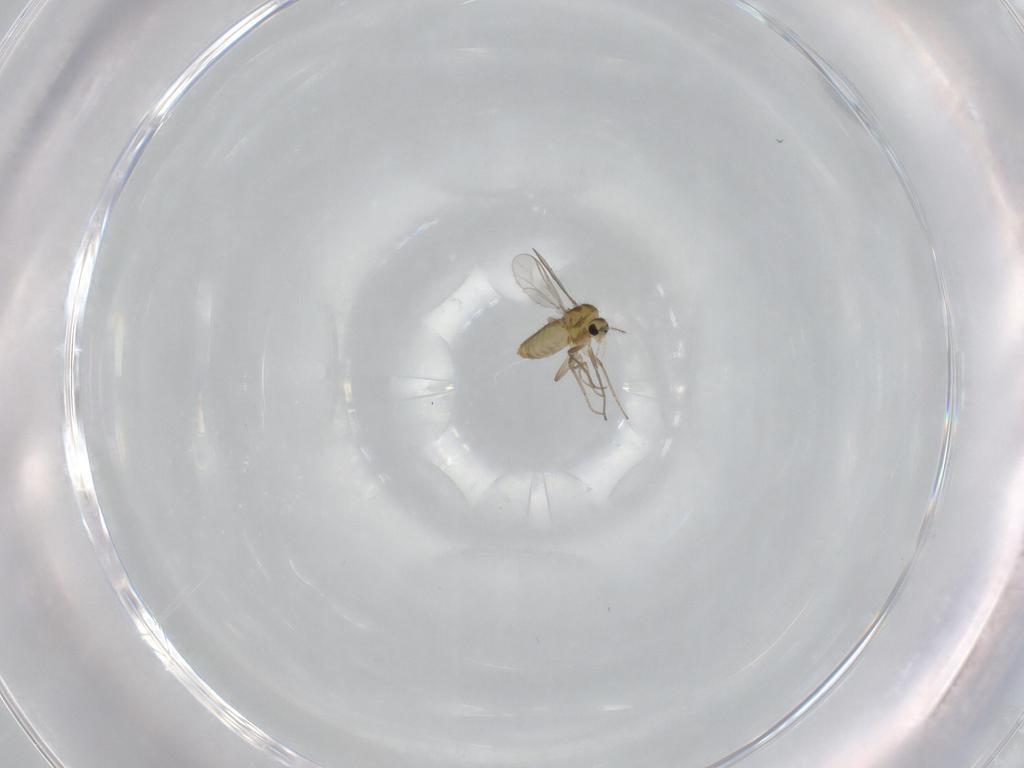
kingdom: Animalia
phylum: Arthropoda
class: Insecta
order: Diptera
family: Chironomidae
